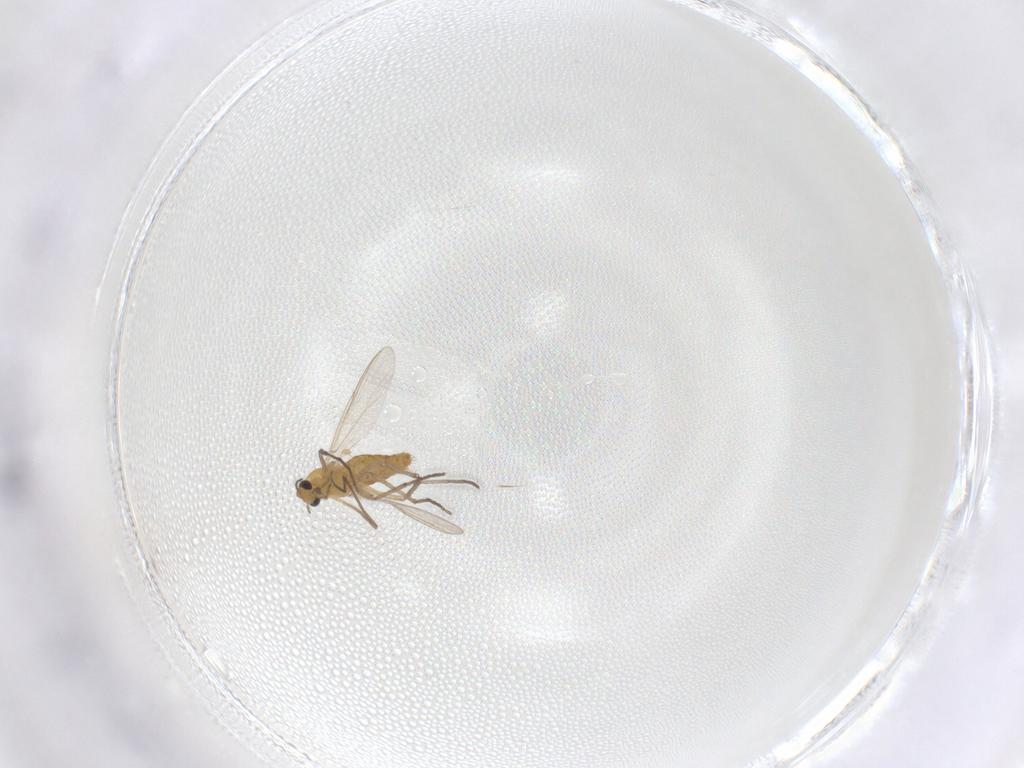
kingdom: Animalia
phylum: Arthropoda
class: Insecta
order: Diptera
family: Chironomidae
